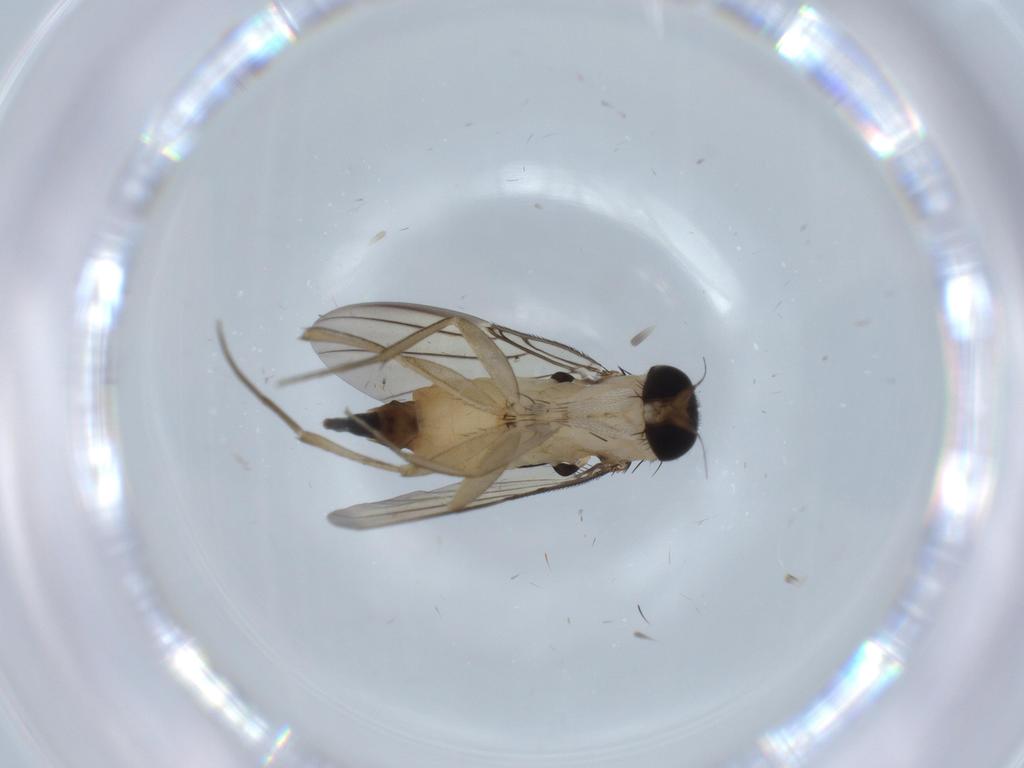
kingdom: Animalia
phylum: Arthropoda
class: Insecta
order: Diptera
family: Phoridae
